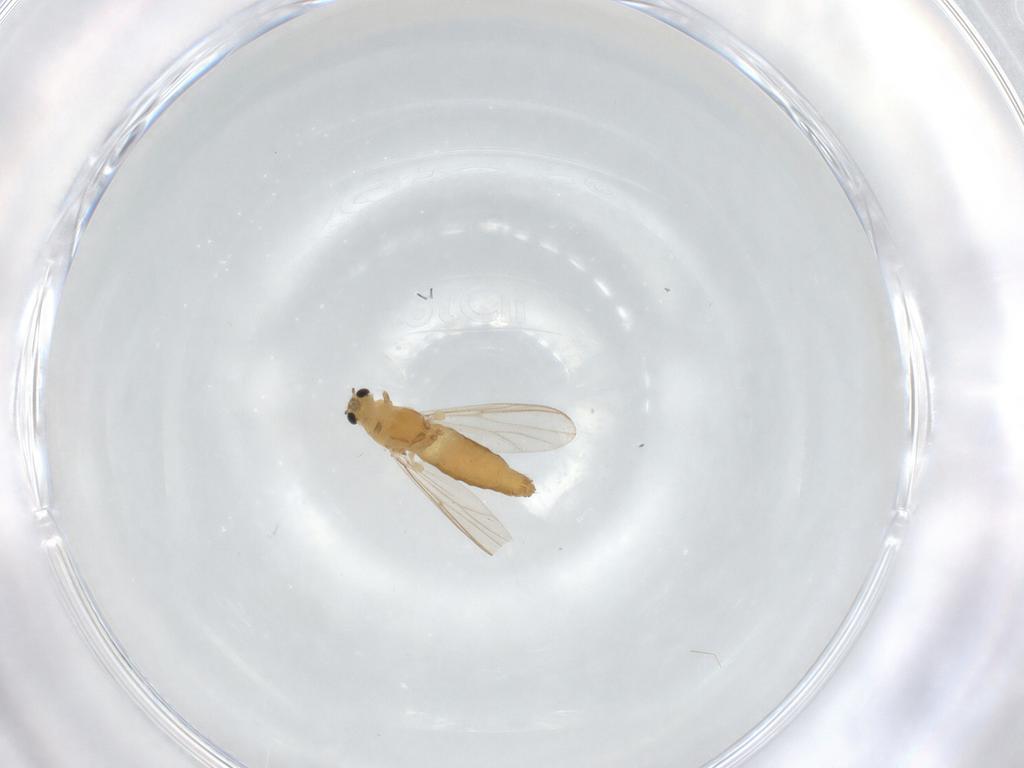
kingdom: Animalia
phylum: Arthropoda
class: Insecta
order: Diptera
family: Chironomidae
